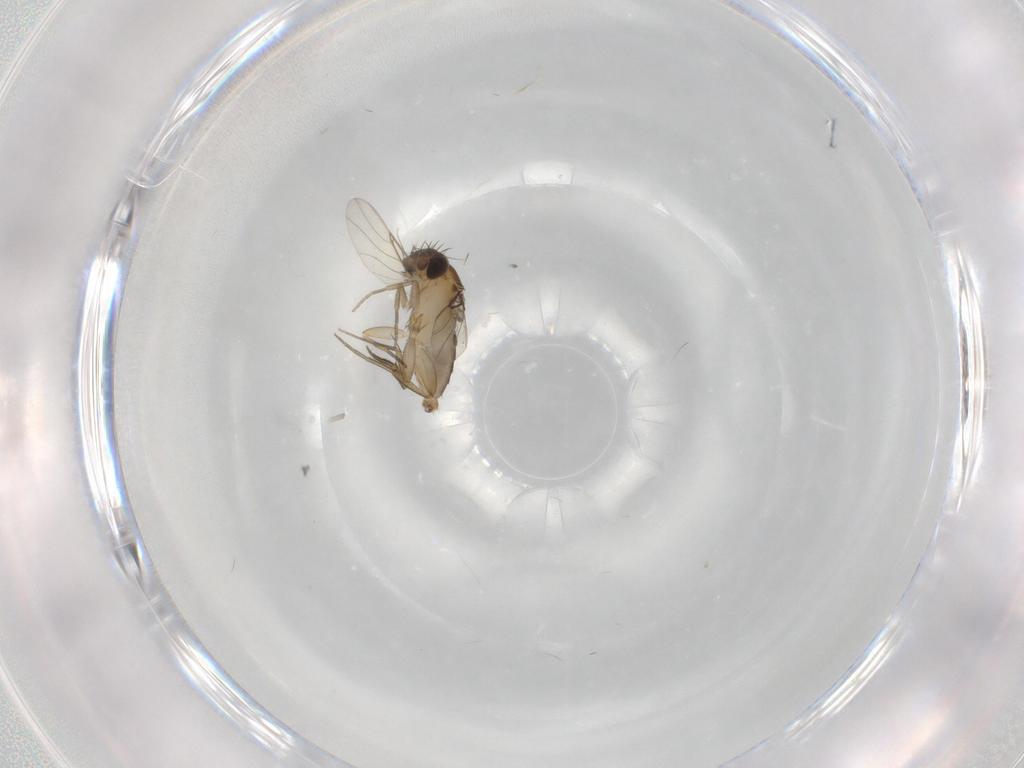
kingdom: Animalia
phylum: Arthropoda
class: Insecta
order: Diptera
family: Phoridae
